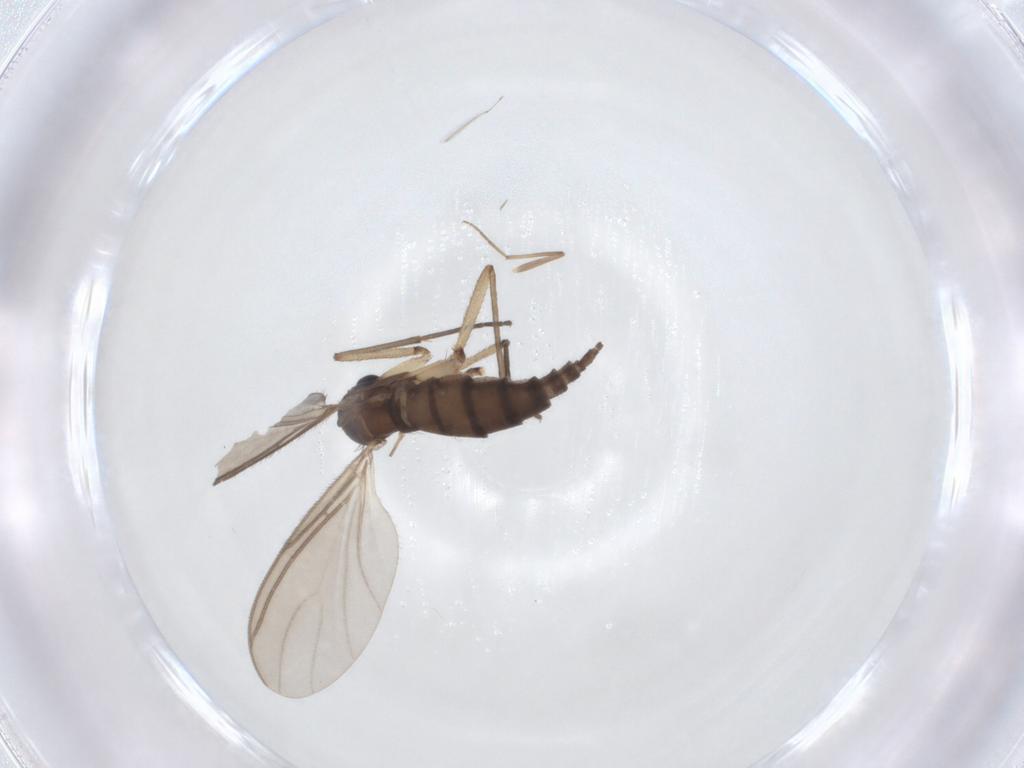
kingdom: Animalia
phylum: Arthropoda
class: Insecta
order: Diptera
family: Sciaridae
